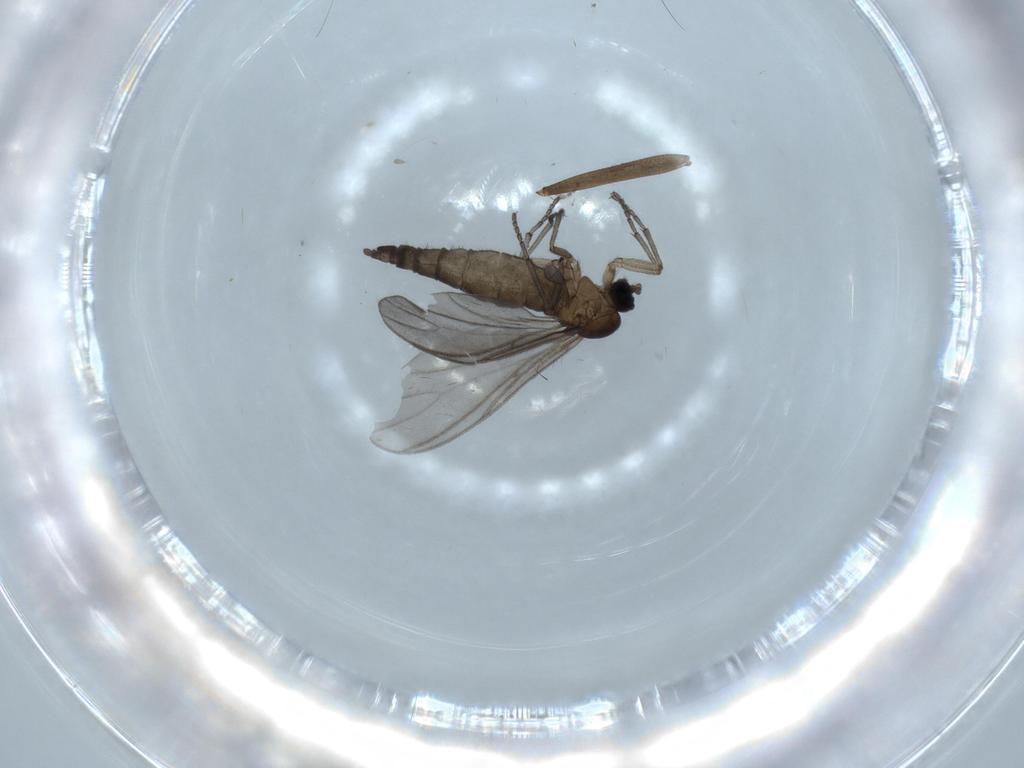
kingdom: Animalia
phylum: Arthropoda
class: Insecta
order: Diptera
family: Sciaridae
